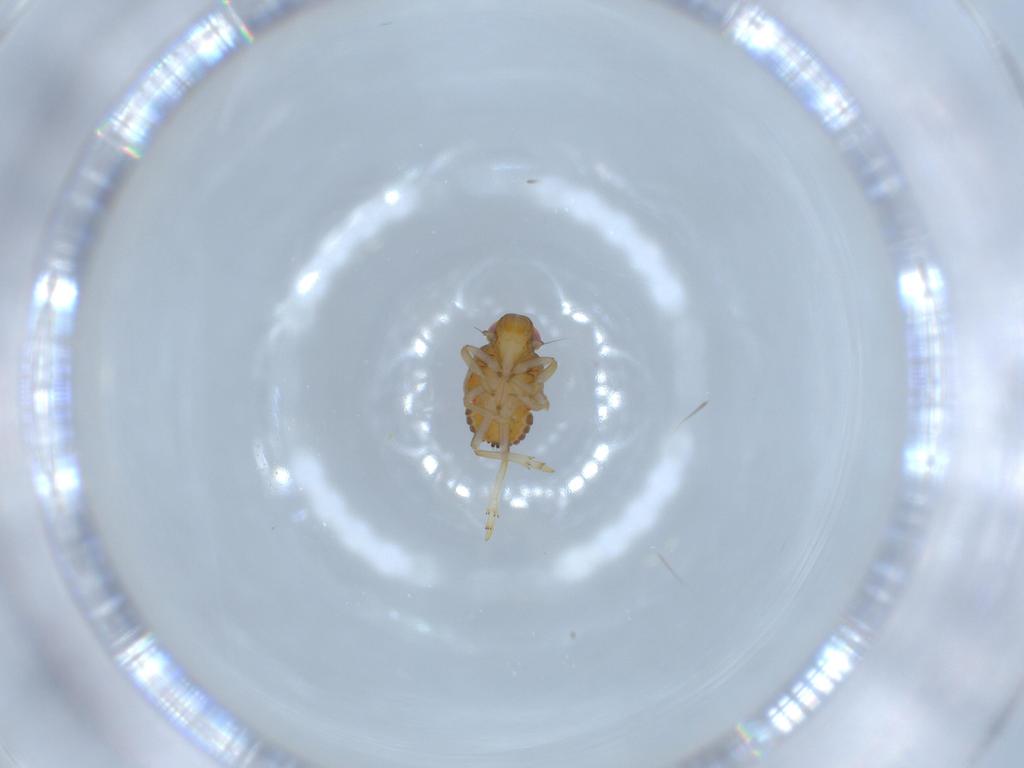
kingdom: Animalia
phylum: Arthropoda
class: Insecta
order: Hemiptera
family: Issidae
